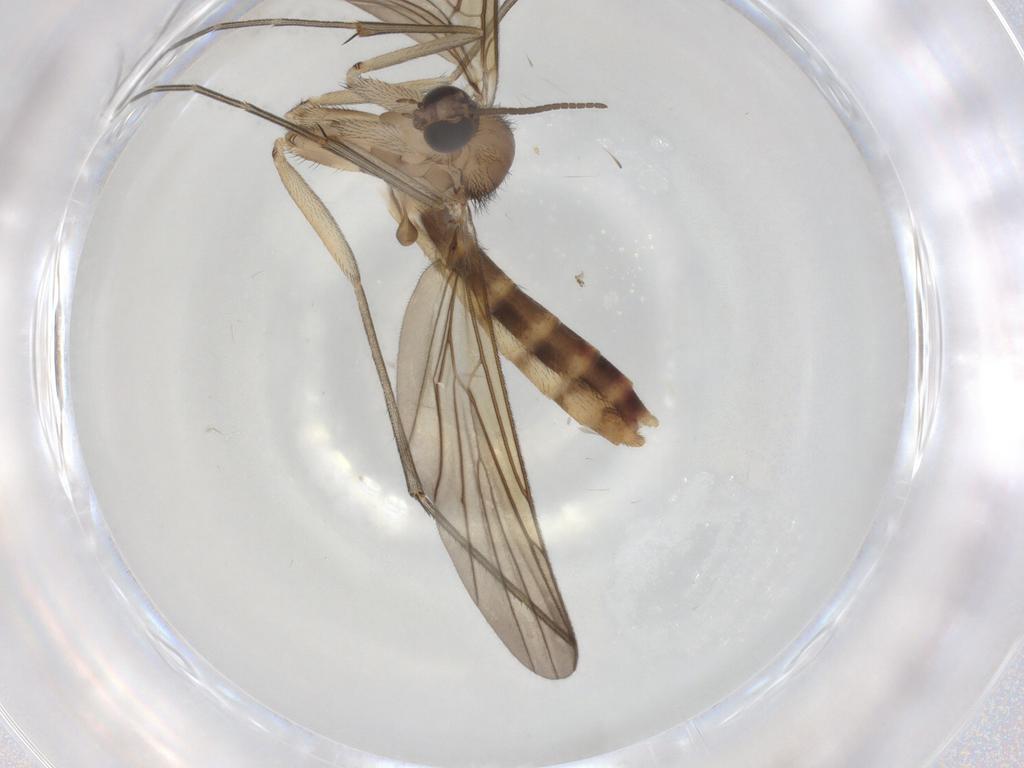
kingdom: Animalia
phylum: Arthropoda
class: Insecta
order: Diptera
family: Keroplatidae
